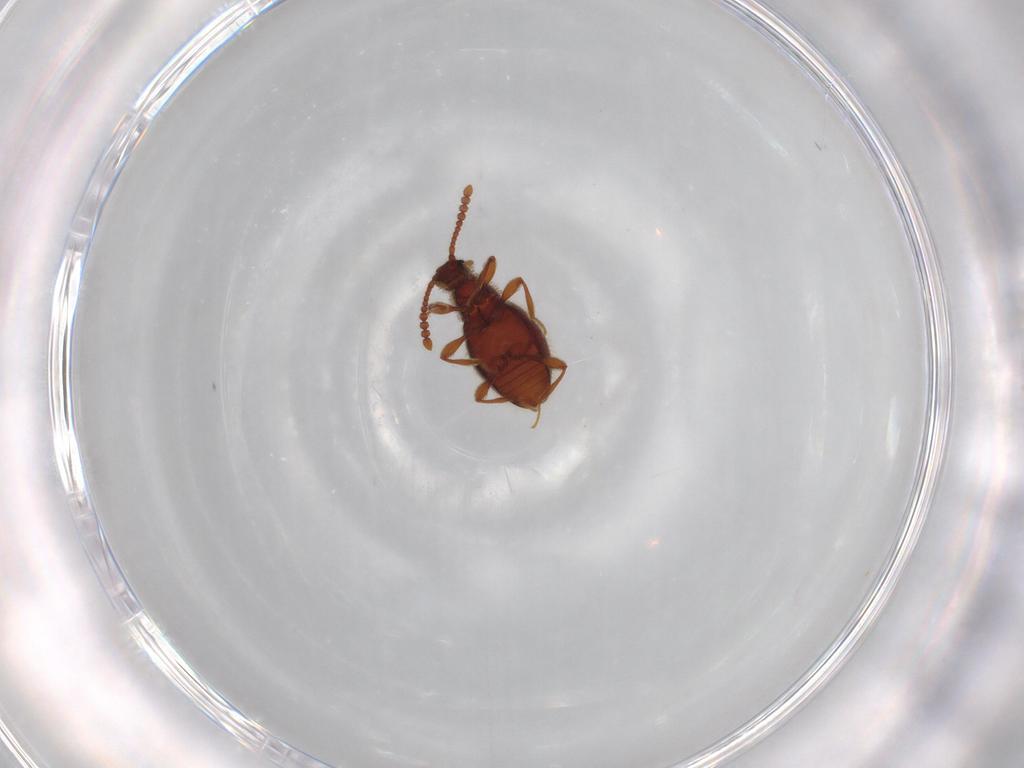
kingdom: Animalia
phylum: Arthropoda
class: Insecta
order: Coleoptera
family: Staphylinidae
